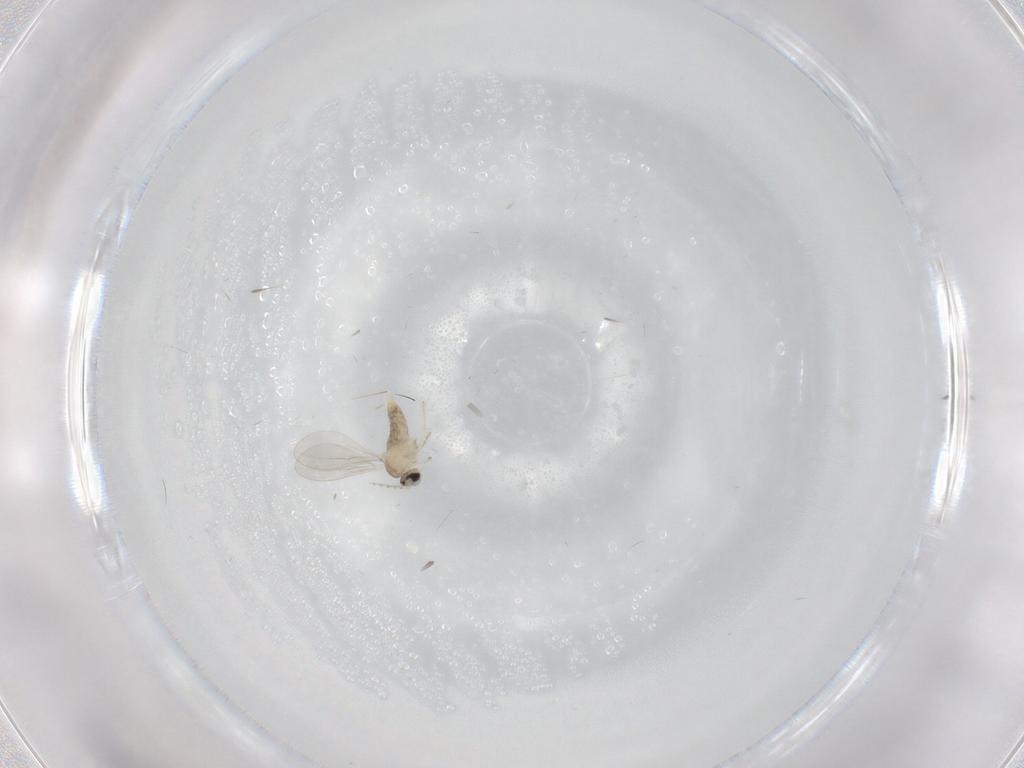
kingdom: Animalia
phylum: Arthropoda
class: Insecta
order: Diptera
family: Cecidomyiidae
